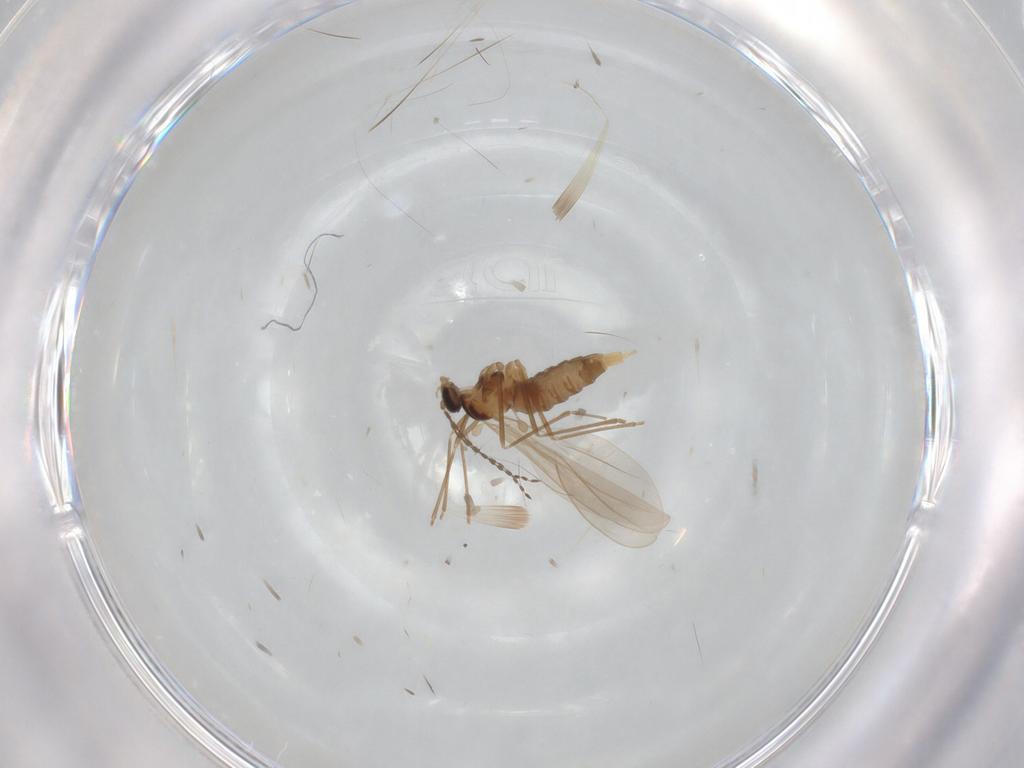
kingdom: Animalia
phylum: Arthropoda
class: Insecta
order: Diptera
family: Cecidomyiidae
